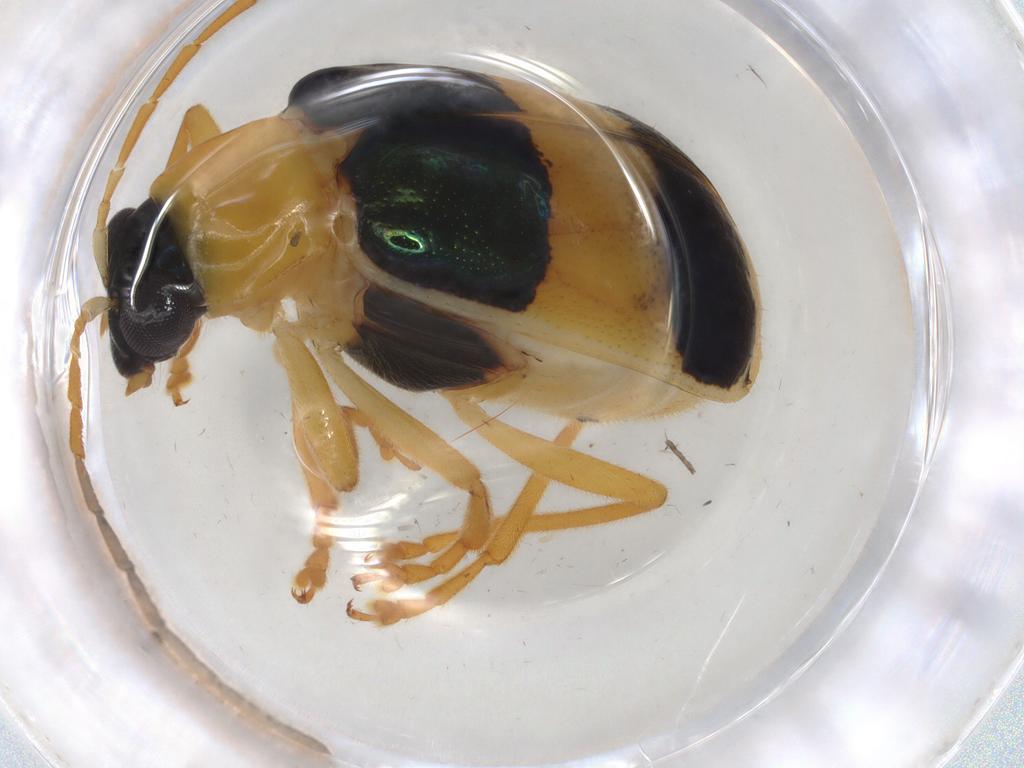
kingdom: Animalia
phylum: Arthropoda
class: Insecta
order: Coleoptera
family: Chrysomelidae
